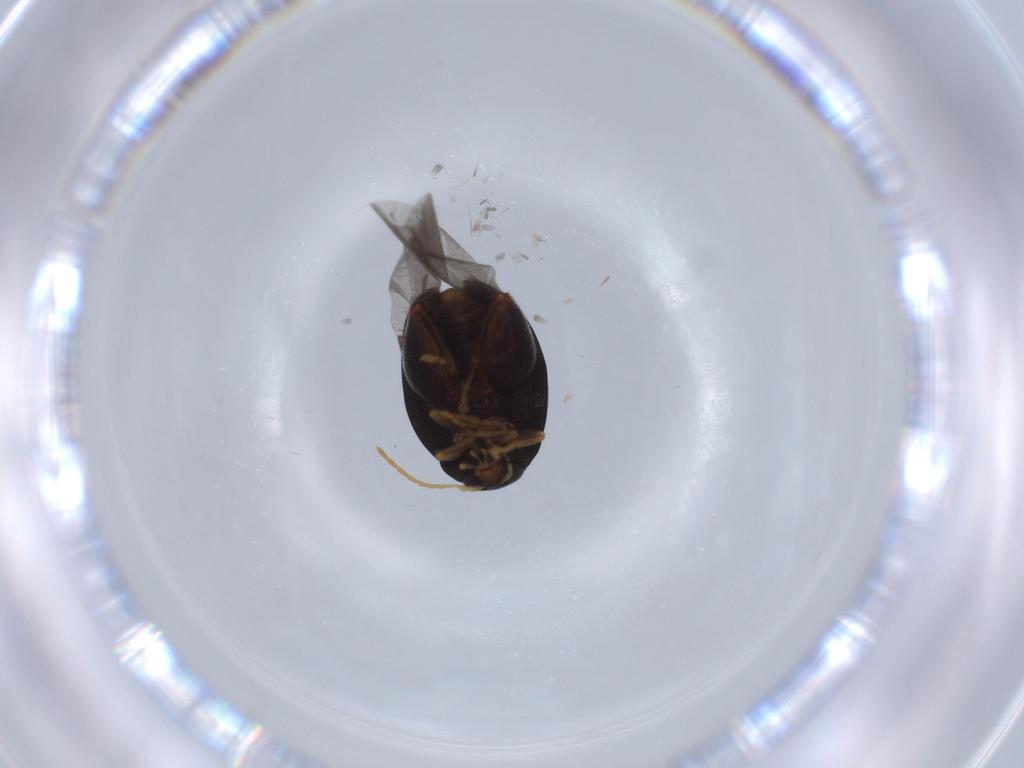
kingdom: Animalia
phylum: Arthropoda
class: Insecta
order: Coleoptera
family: Chrysomelidae
